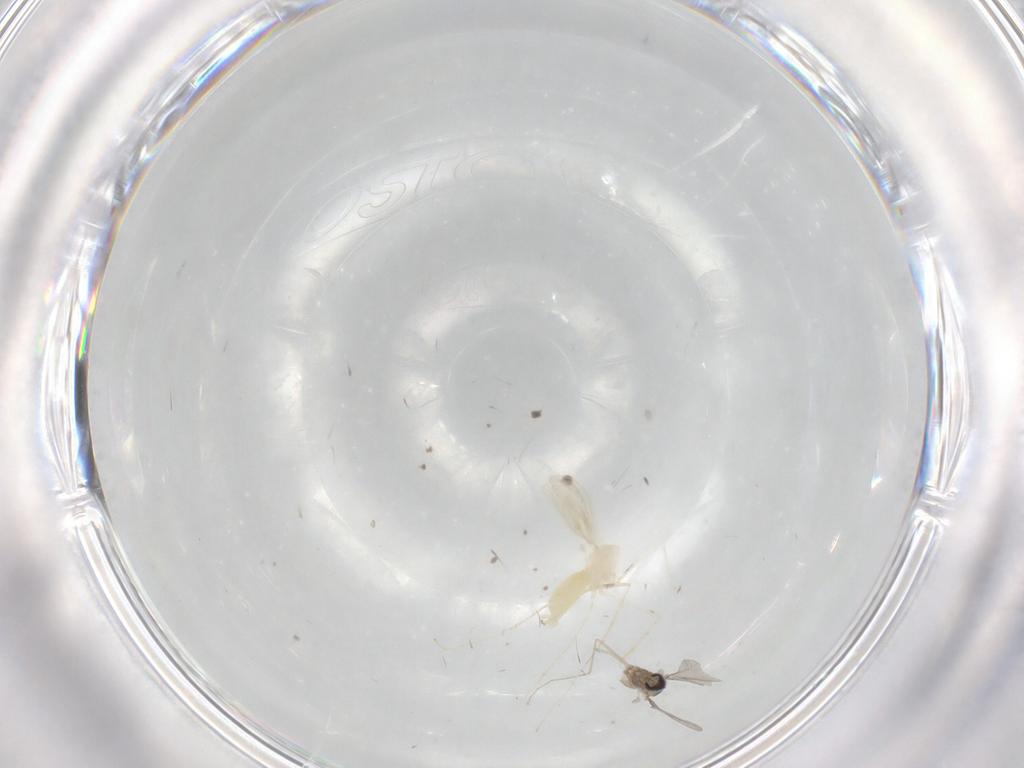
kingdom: Animalia
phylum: Arthropoda
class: Insecta
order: Diptera
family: Cecidomyiidae
